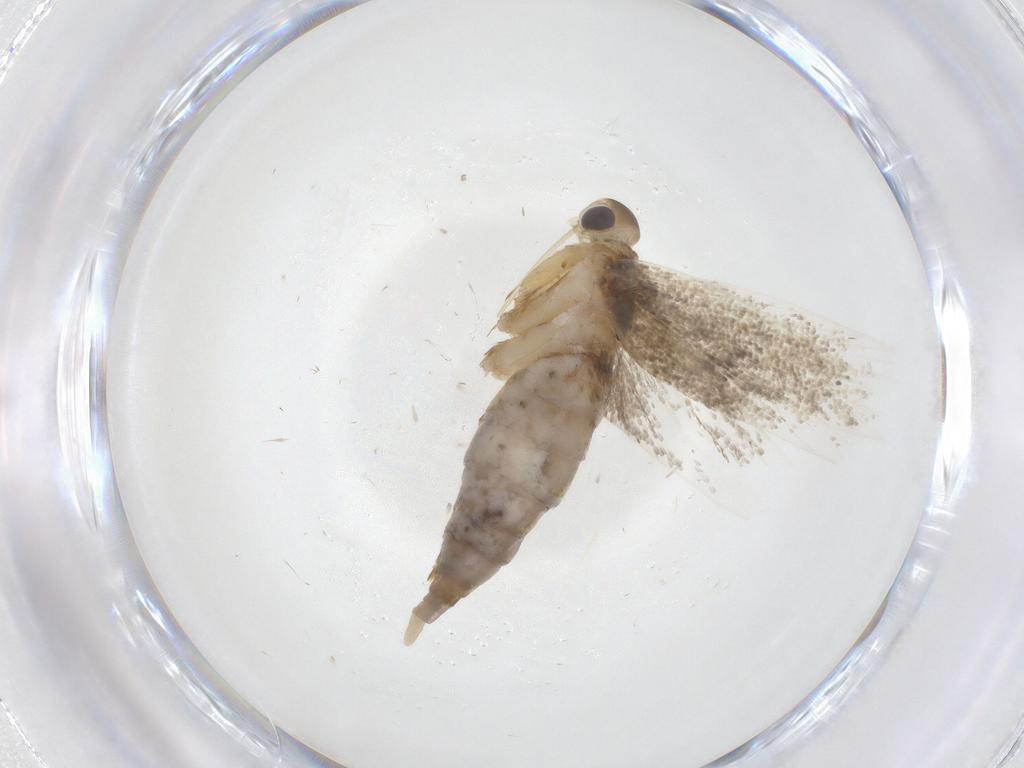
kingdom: Animalia
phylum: Arthropoda
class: Insecta
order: Lepidoptera
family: Lecithoceridae
